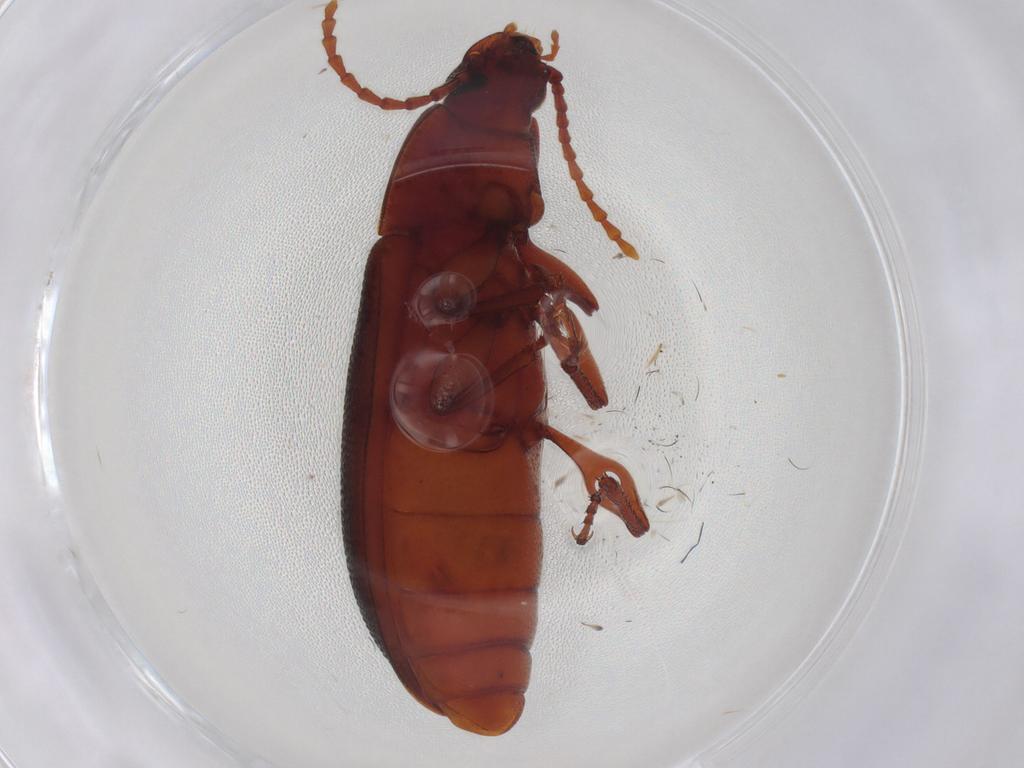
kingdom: Animalia
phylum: Arthropoda
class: Insecta
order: Coleoptera
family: Tenebrionidae
